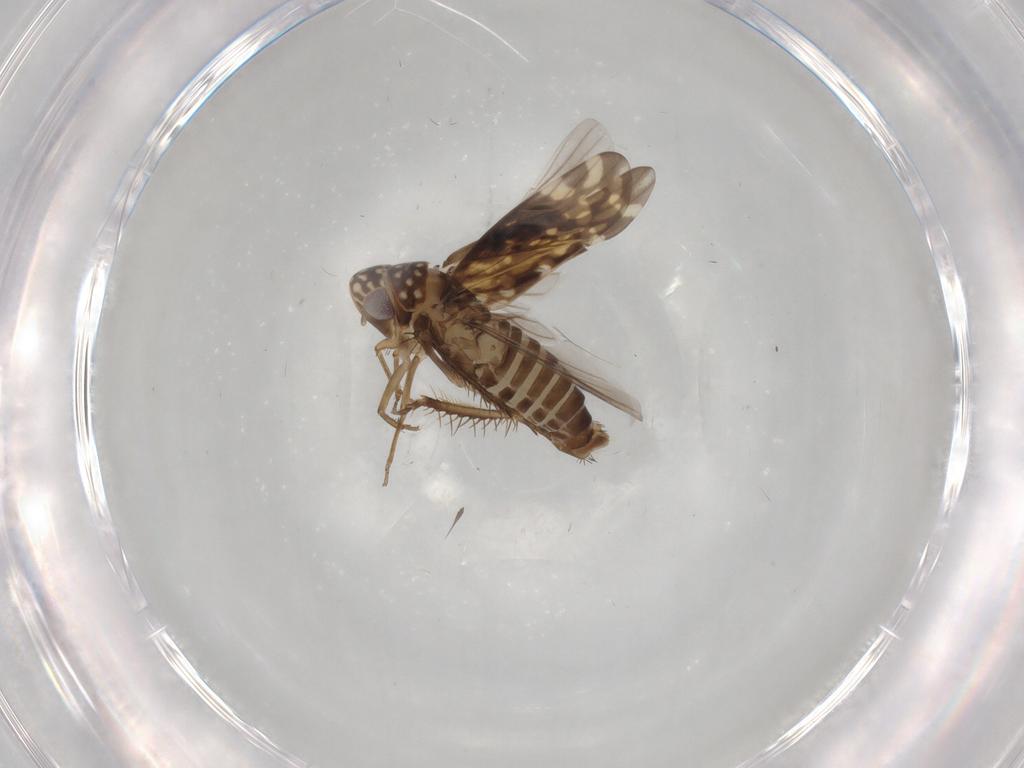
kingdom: Animalia
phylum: Arthropoda
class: Insecta
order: Hemiptera
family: Cicadellidae
